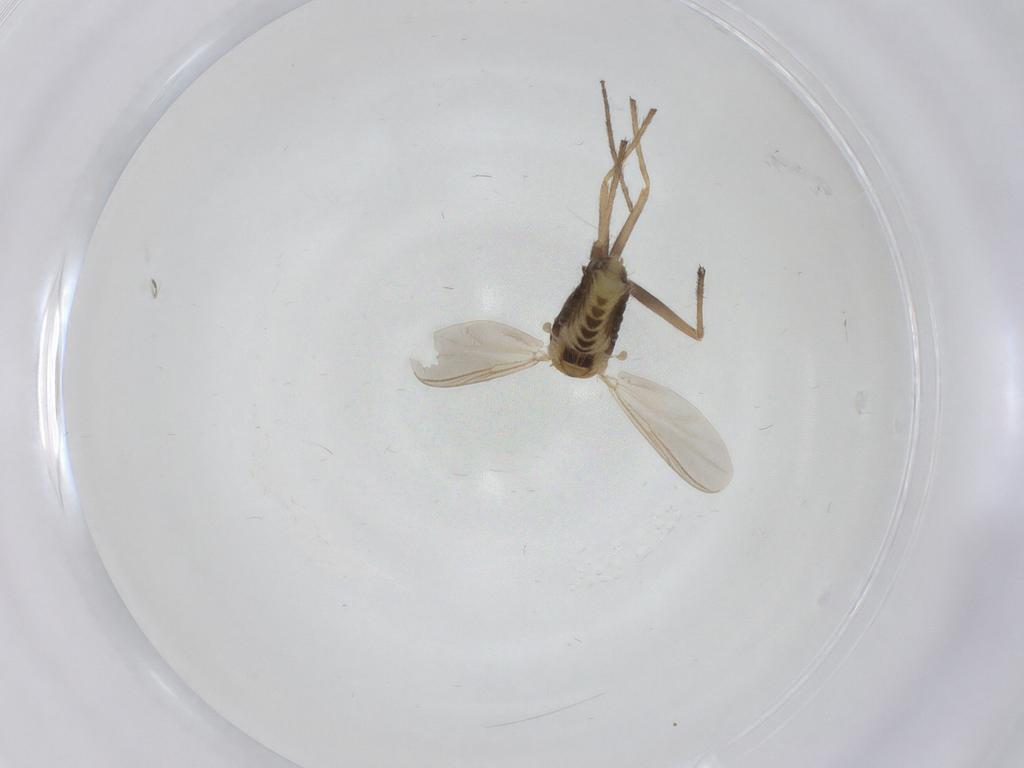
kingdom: Animalia
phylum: Arthropoda
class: Insecta
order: Diptera
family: Chironomidae
